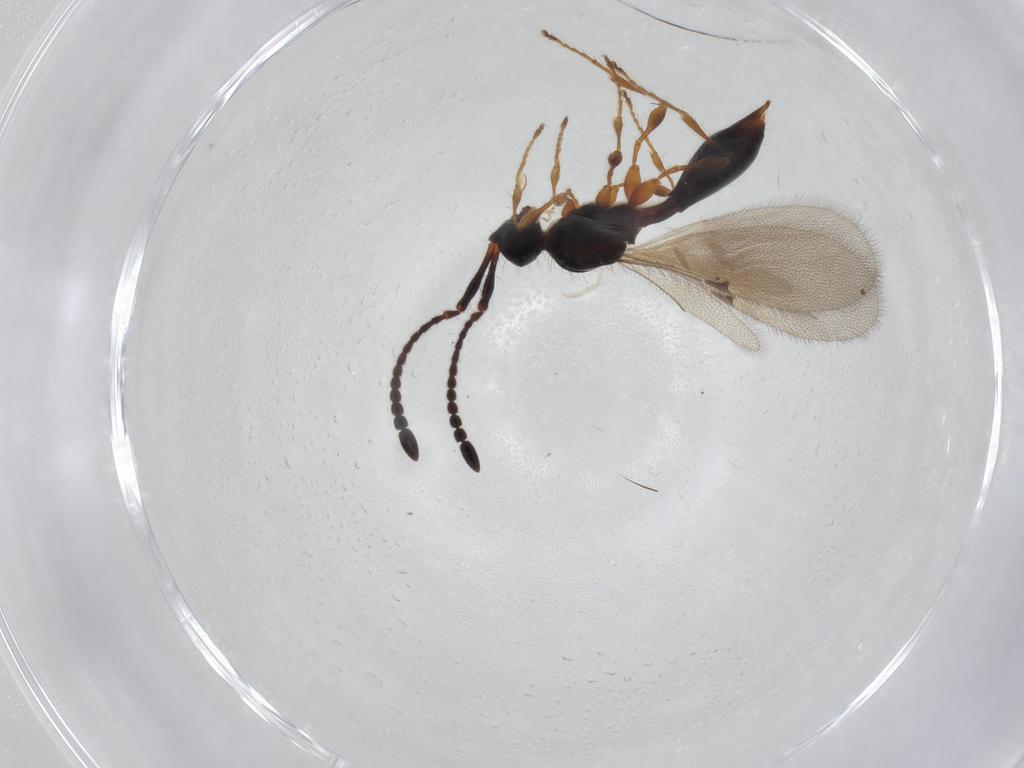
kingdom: Animalia
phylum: Arthropoda
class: Insecta
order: Hymenoptera
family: Diapriidae
